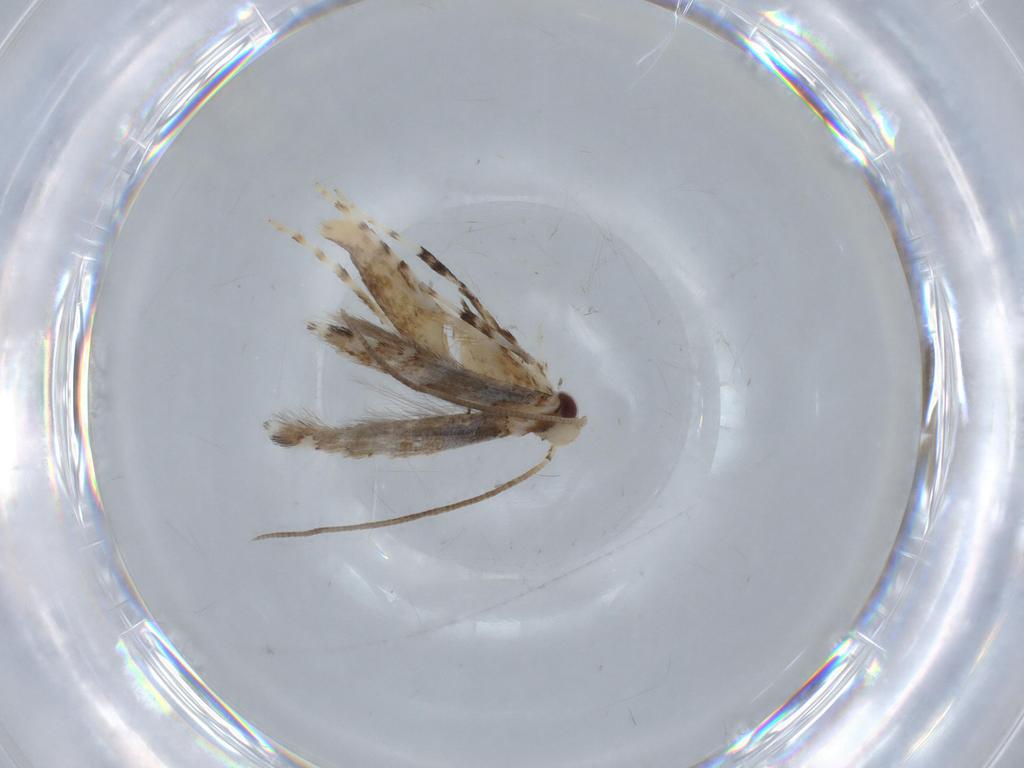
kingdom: Animalia
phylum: Arthropoda
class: Insecta
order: Lepidoptera
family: Gracillariidae
